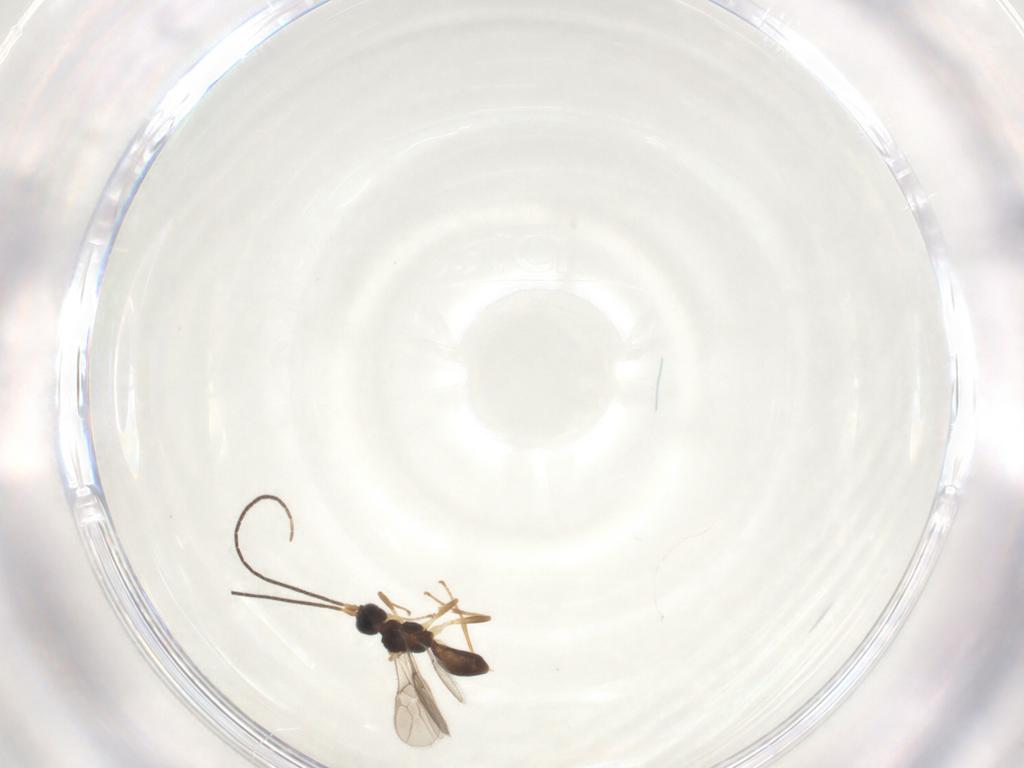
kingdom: Animalia
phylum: Arthropoda
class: Insecta
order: Hymenoptera
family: Braconidae
